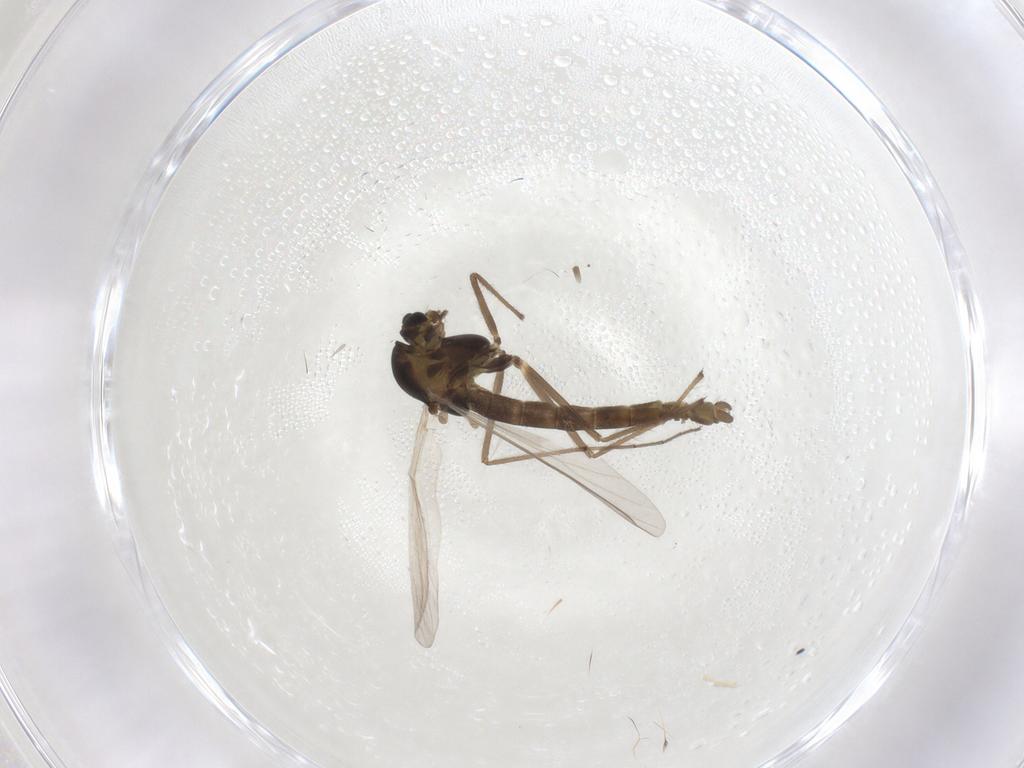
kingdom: Animalia
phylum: Arthropoda
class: Insecta
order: Diptera
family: Chironomidae
